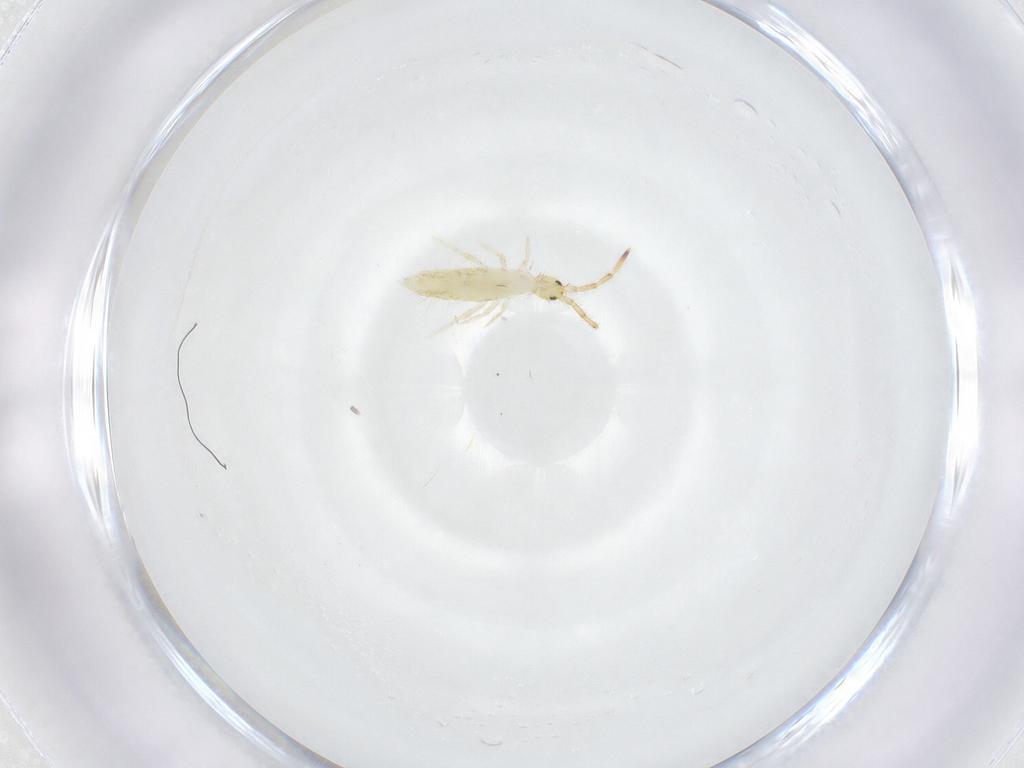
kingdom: Animalia
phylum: Arthropoda
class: Collembola
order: Entomobryomorpha
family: Entomobryidae
